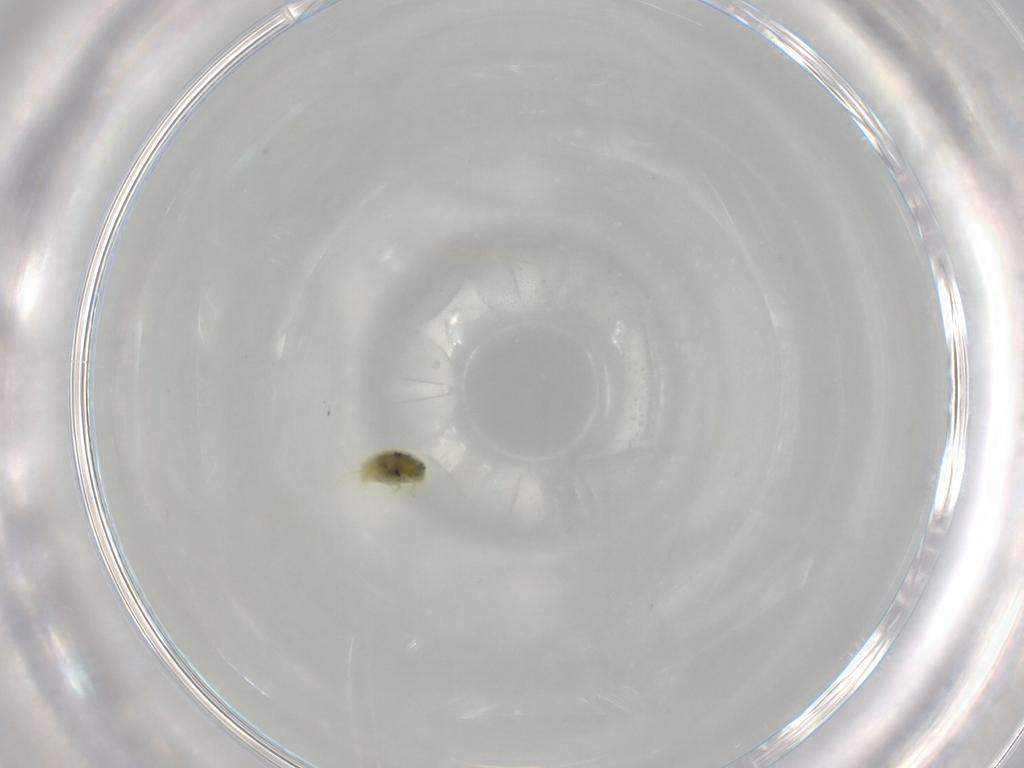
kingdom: Animalia
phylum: Arthropoda
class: Arachnida
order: Trombidiformes
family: Tetranychidae
